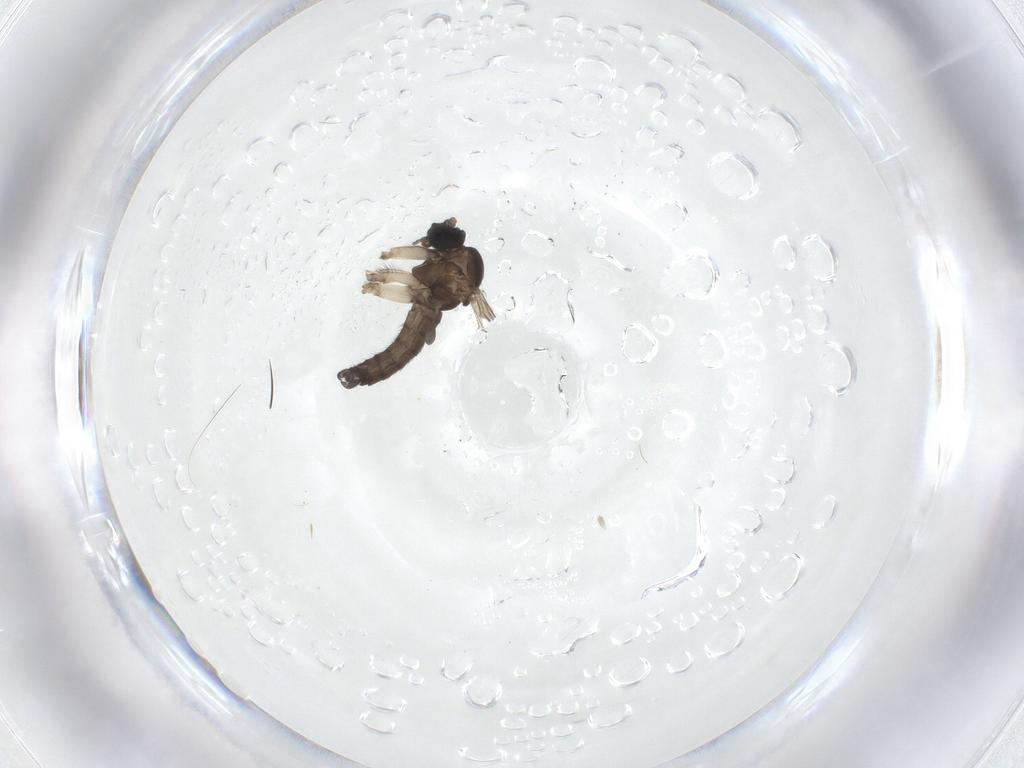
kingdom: Animalia
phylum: Arthropoda
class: Insecta
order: Diptera
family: Sciaridae
